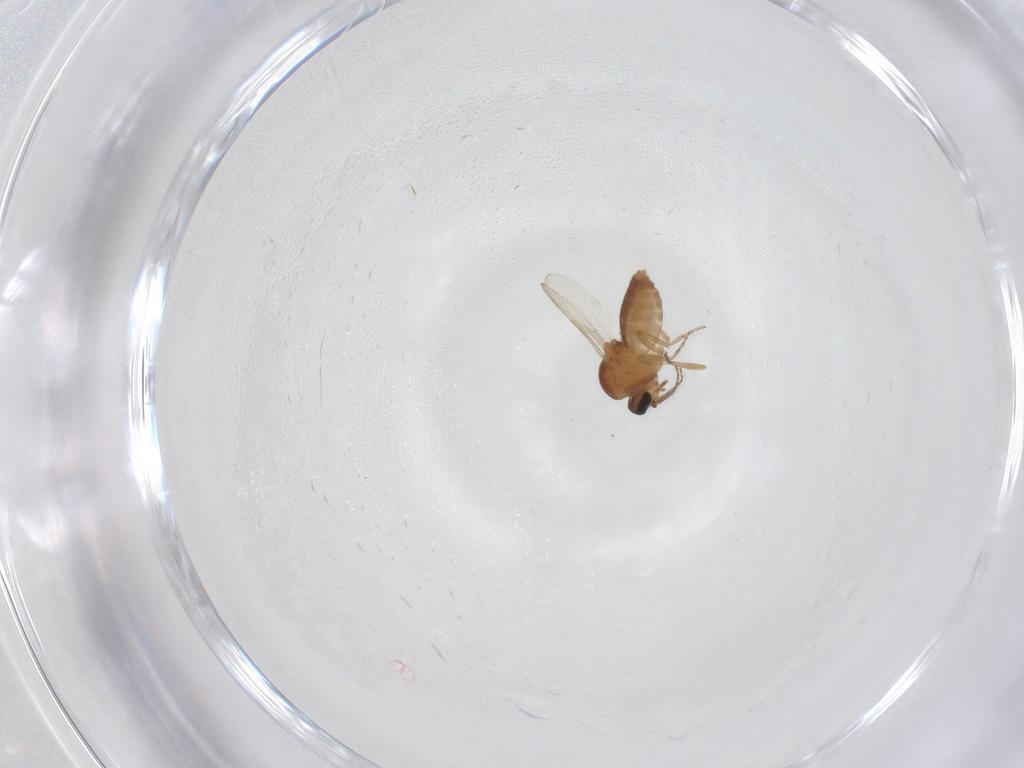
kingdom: Animalia
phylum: Arthropoda
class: Insecta
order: Diptera
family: Ceratopogonidae
